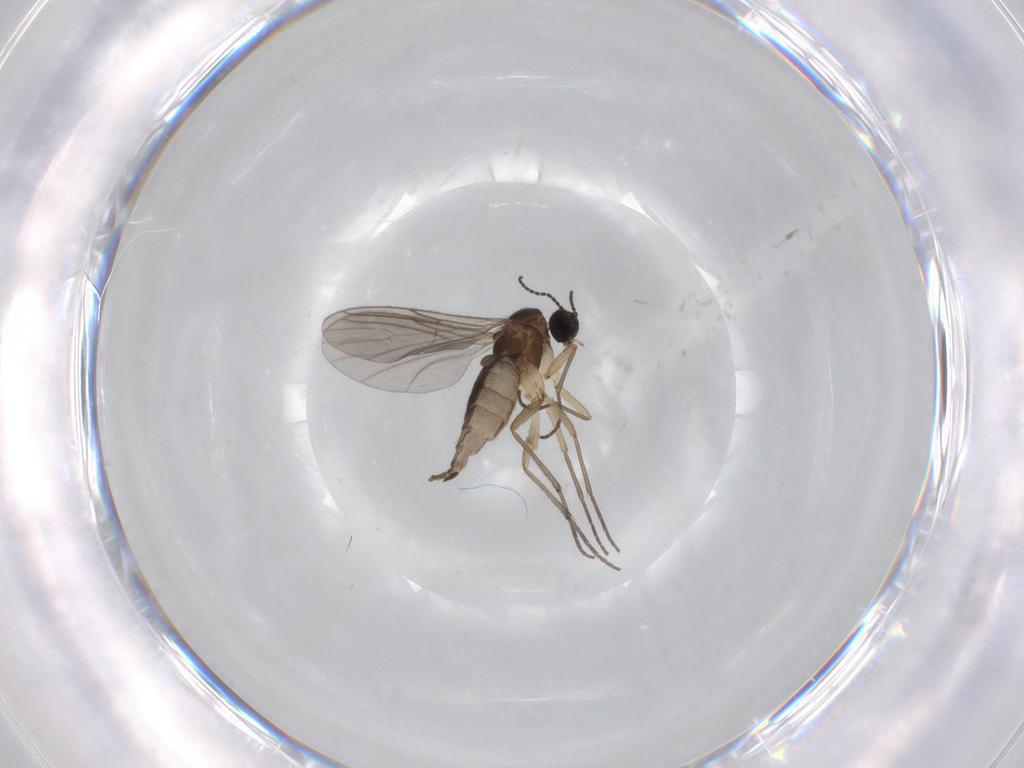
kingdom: Animalia
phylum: Arthropoda
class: Insecta
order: Diptera
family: Sciaridae
